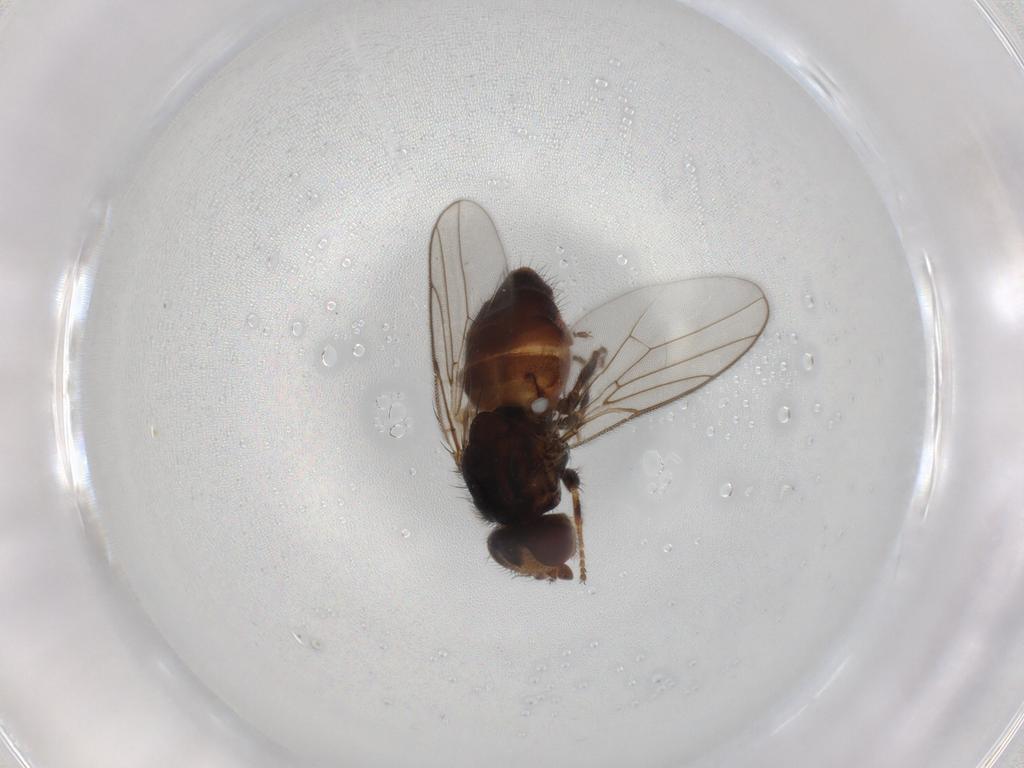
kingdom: Animalia
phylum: Arthropoda
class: Insecta
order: Diptera
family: Chloropidae
